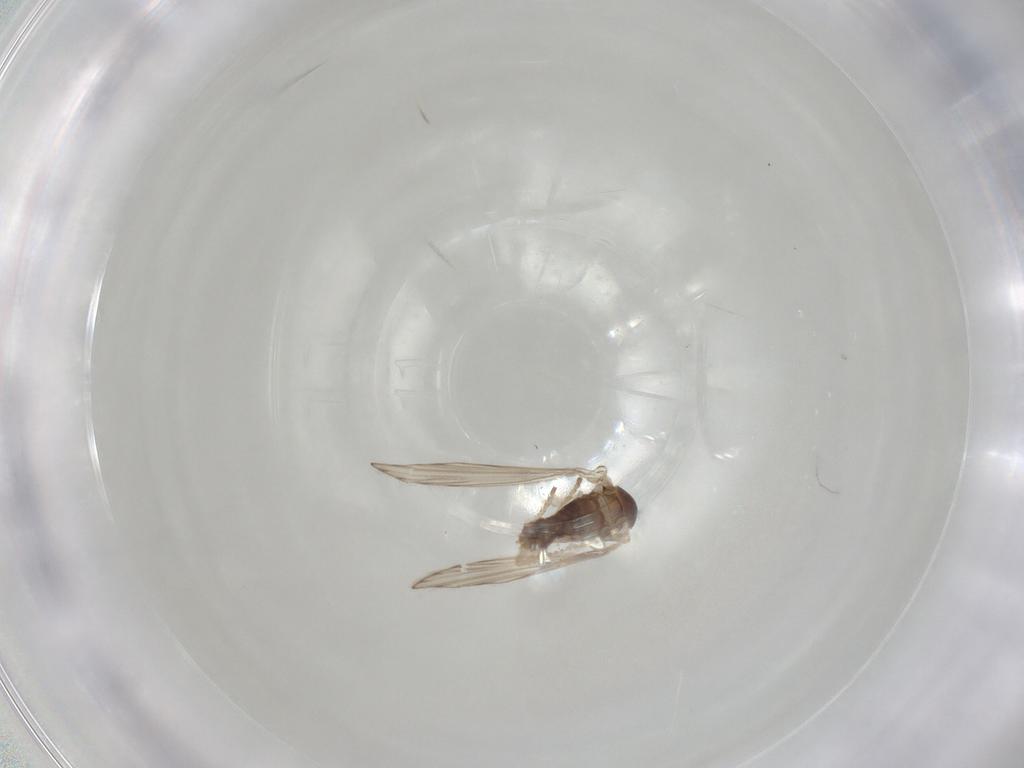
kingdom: Animalia
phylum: Arthropoda
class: Insecta
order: Diptera
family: Psychodidae
